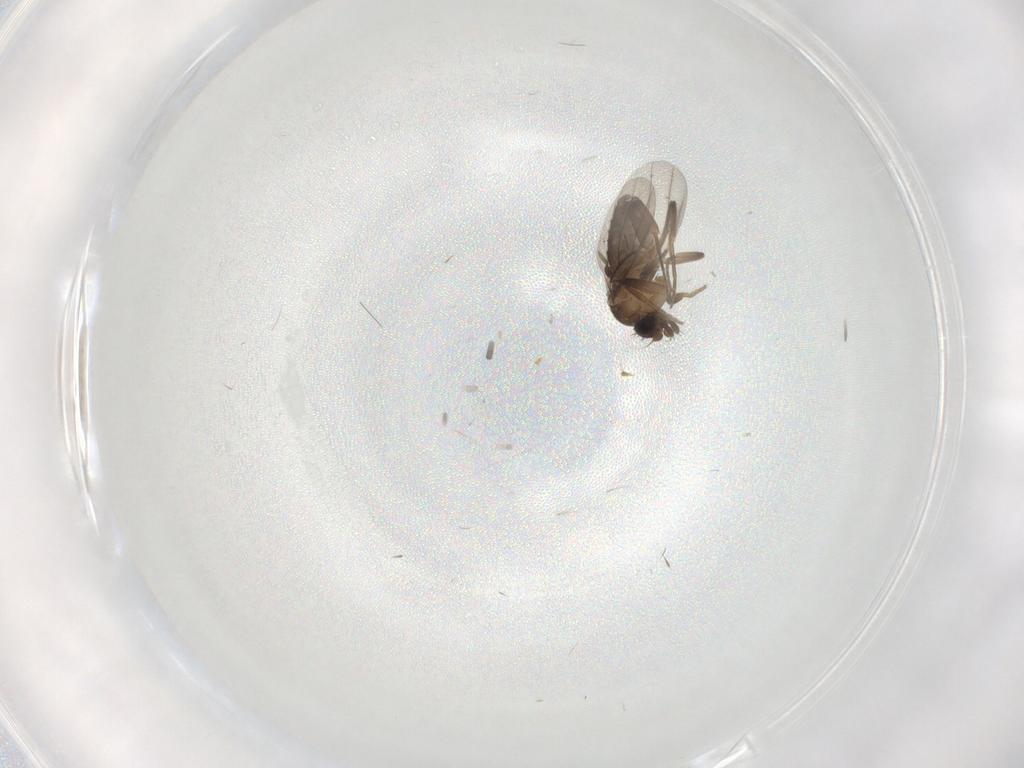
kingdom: Animalia
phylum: Arthropoda
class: Insecta
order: Diptera
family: Phoridae
